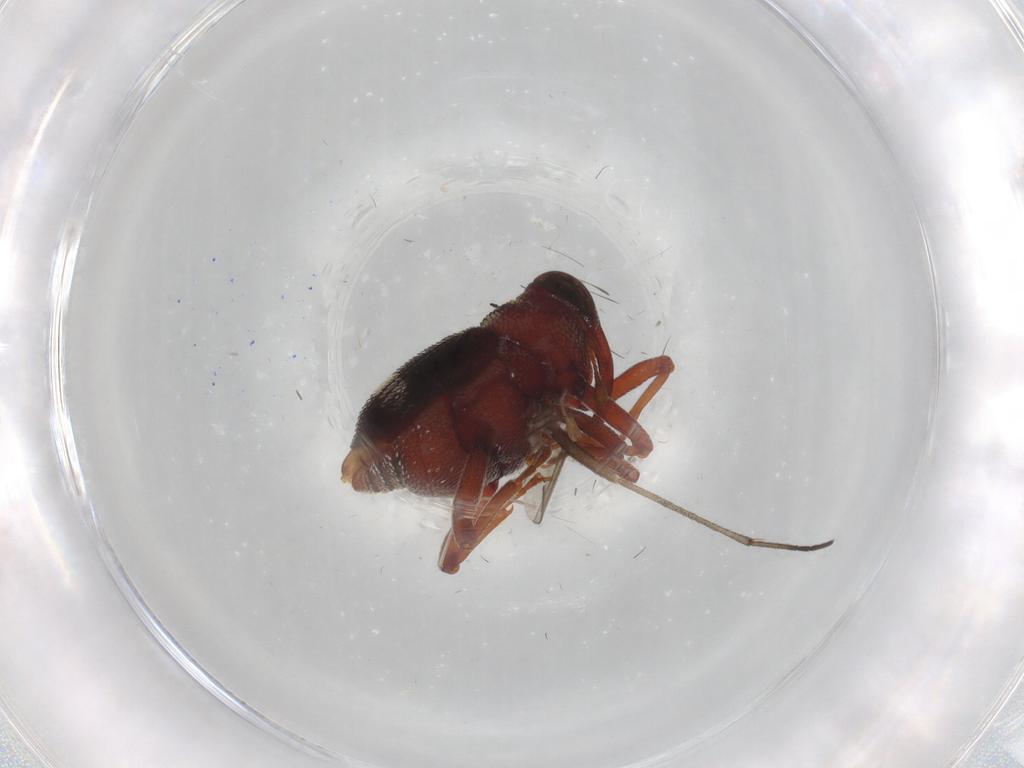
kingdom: Animalia
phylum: Arthropoda
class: Insecta
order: Coleoptera
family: Curculionidae
